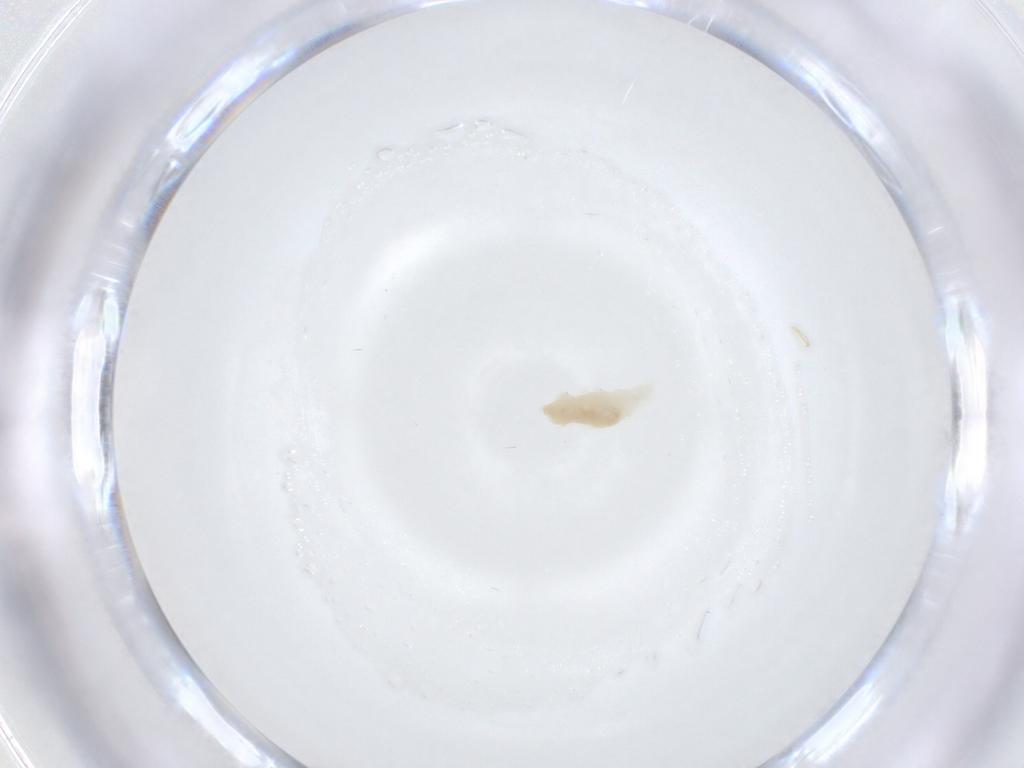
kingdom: Animalia
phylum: Arthropoda
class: Arachnida
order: Trombidiformes
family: Rhagidiidae
